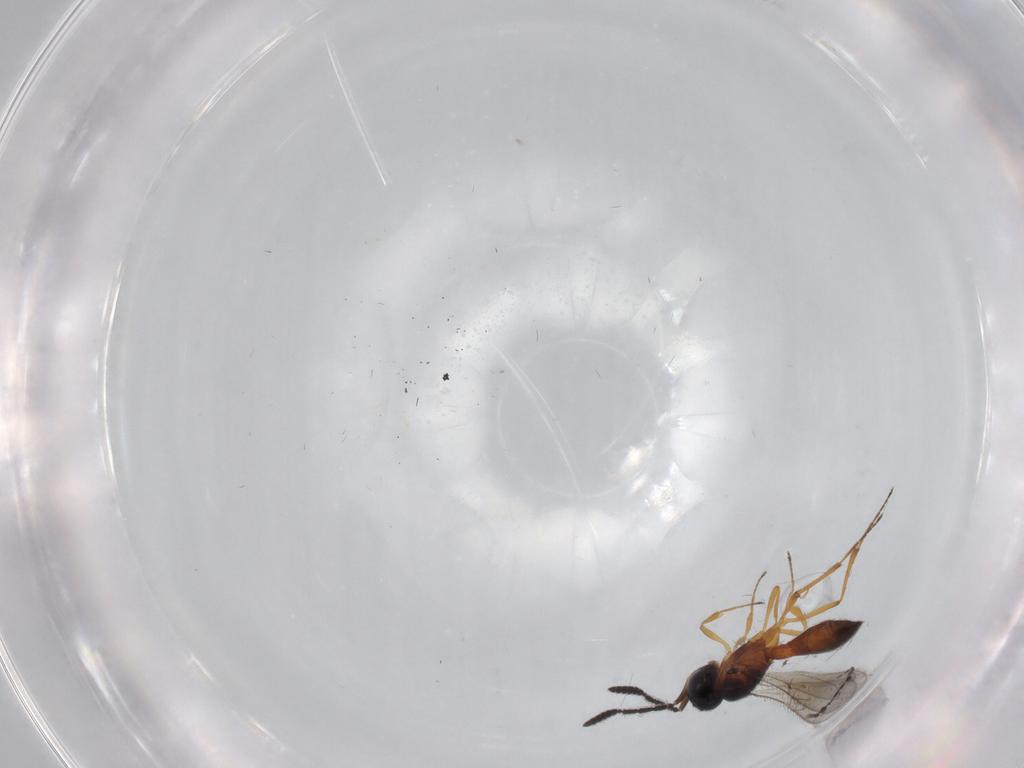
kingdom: Animalia
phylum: Arthropoda
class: Insecta
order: Hymenoptera
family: Scelionidae
